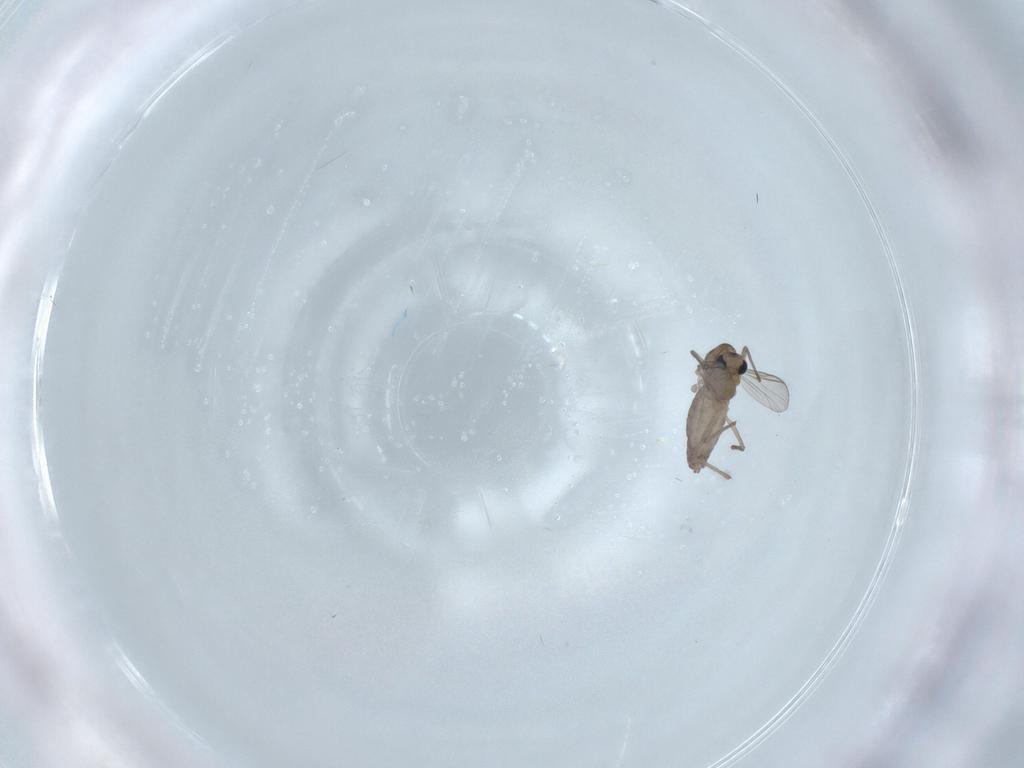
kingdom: Animalia
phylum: Arthropoda
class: Insecta
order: Diptera
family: Chironomidae
